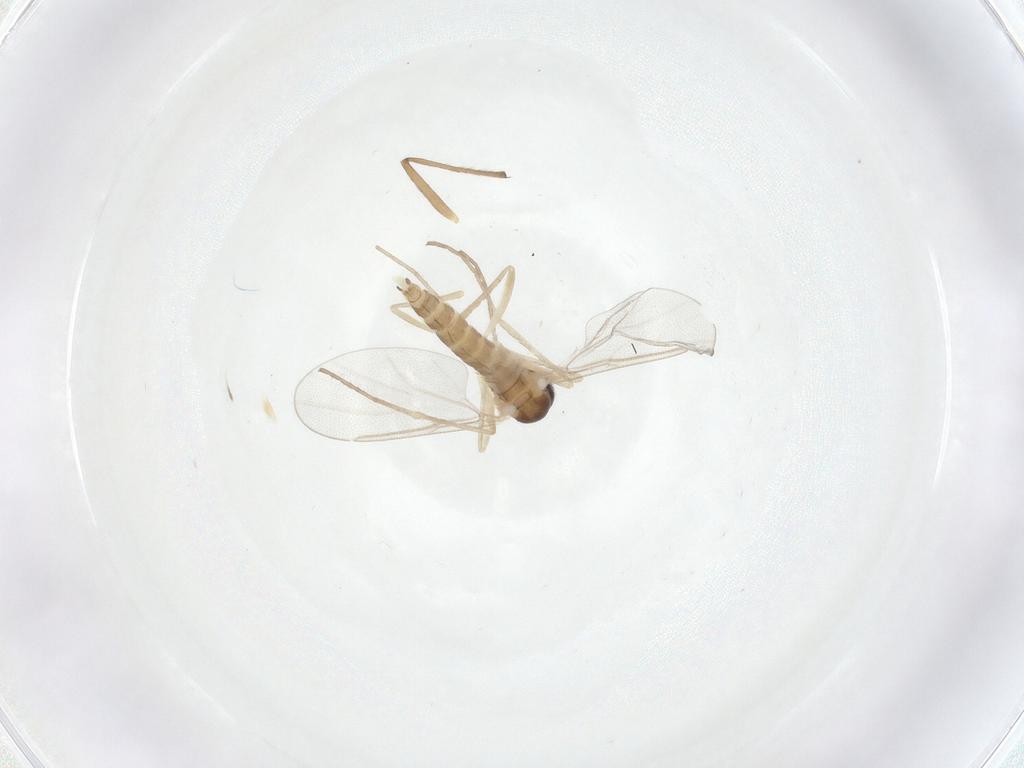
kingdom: Animalia
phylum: Arthropoda
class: Insecta
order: Diptera
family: Cecidomyiidae
